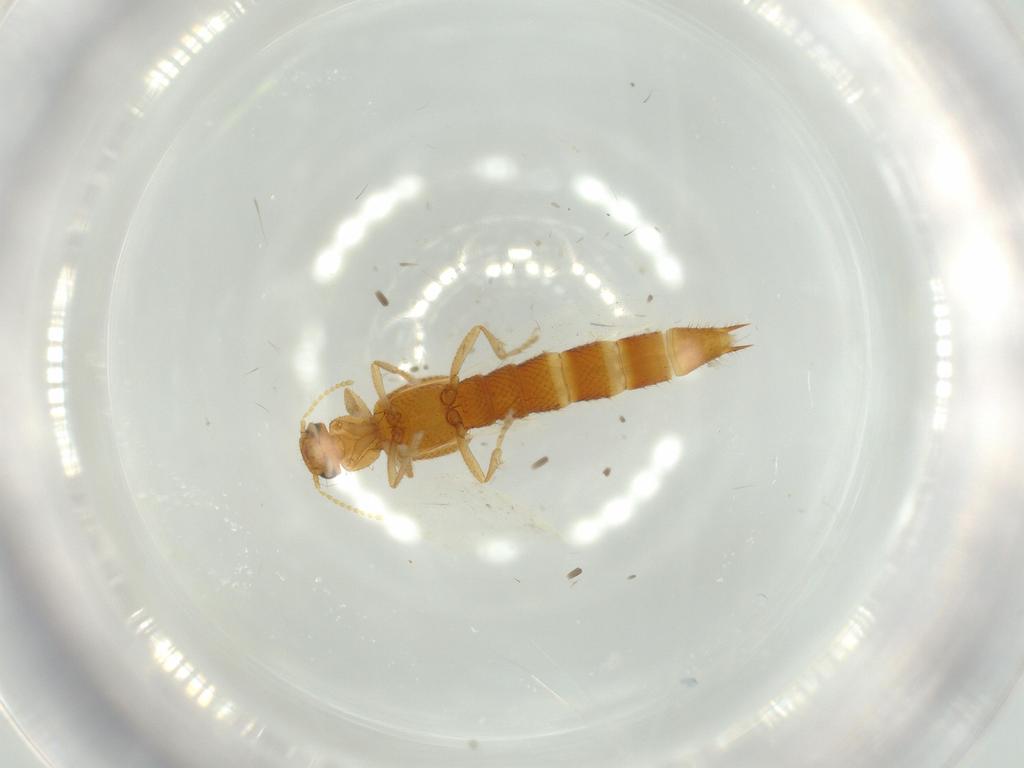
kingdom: Animalia
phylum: Arthropoda
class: Insecta
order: Coleoptera
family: Staphylinidae
